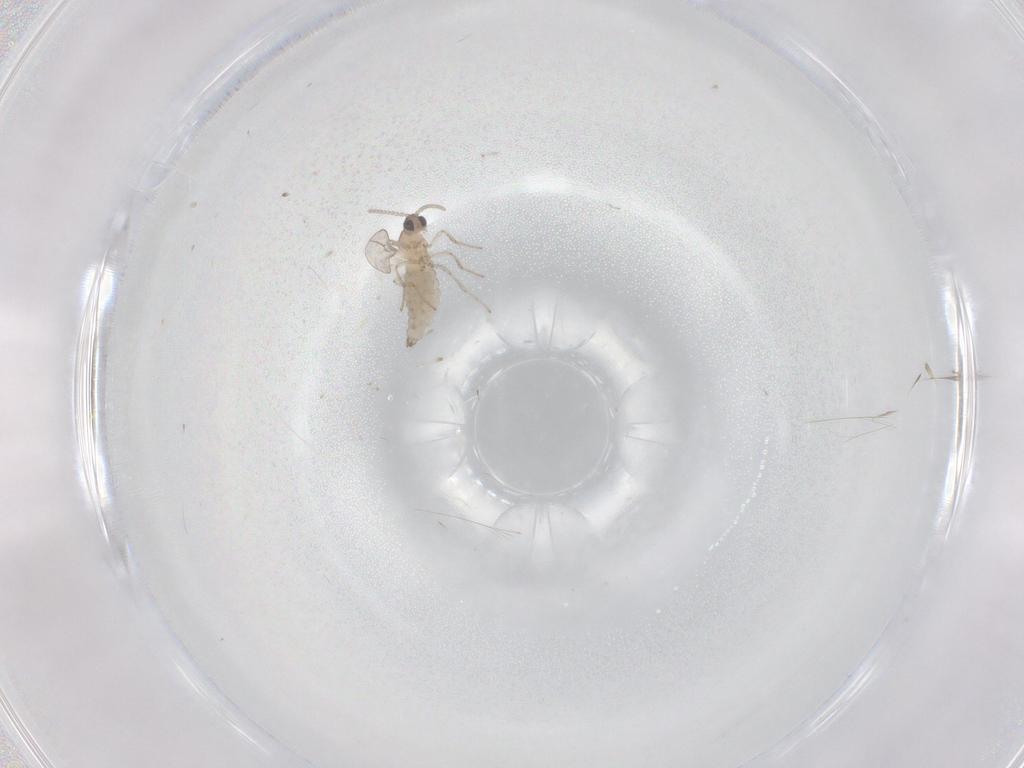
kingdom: Animalia
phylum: Arthropoda
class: Insecta
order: Diptera
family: Cecidomyiidae
